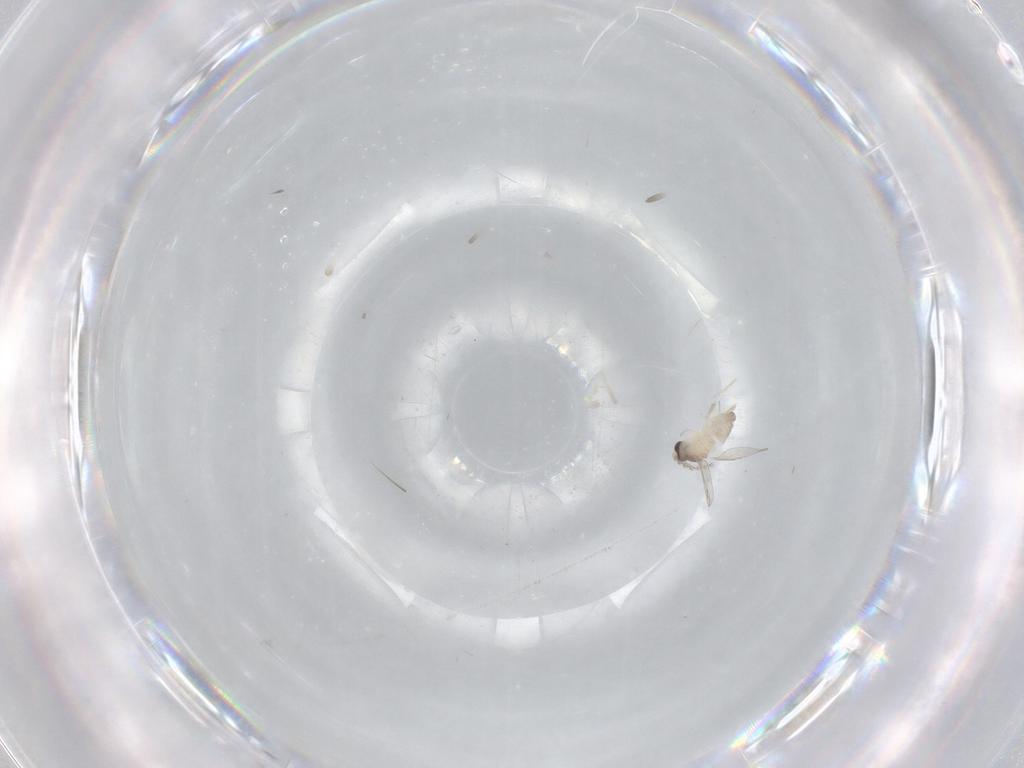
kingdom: Animalia
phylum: Arthropoda
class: Insecta
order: Diptera
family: Cecidomyiidae
